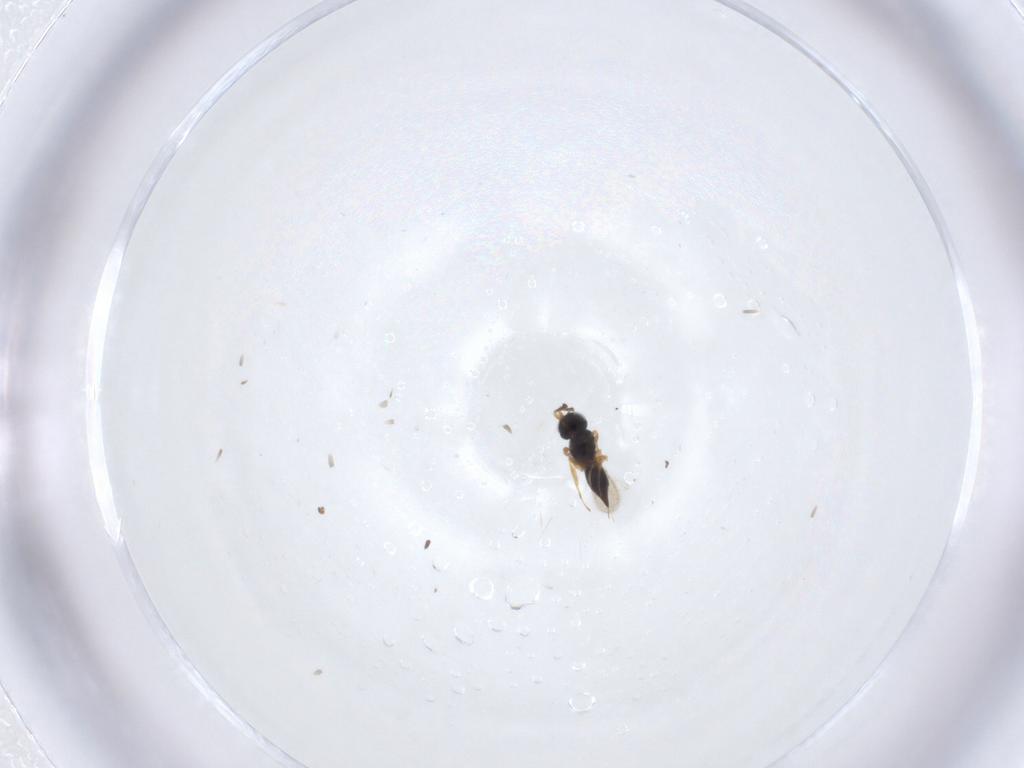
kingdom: Animalia
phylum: Arthropoda
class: Insecta
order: Hymenoptera
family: Scelionidae
